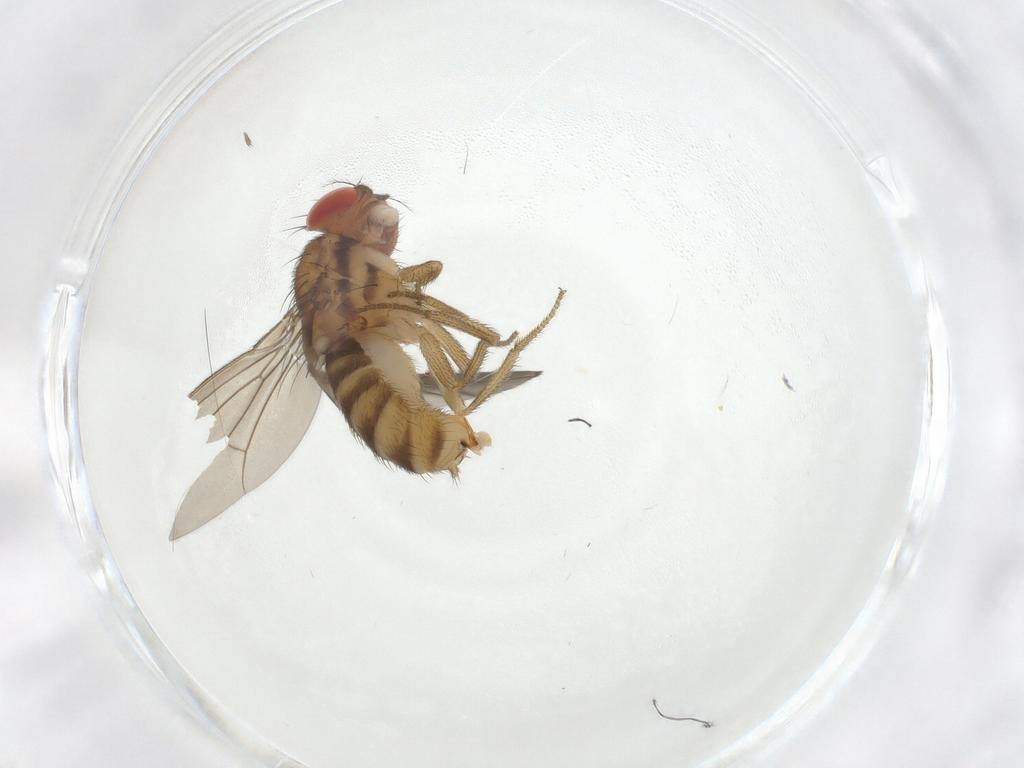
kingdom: Animalia
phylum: Arthropoda
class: Insecta
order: Diptera
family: Drosophilidae
